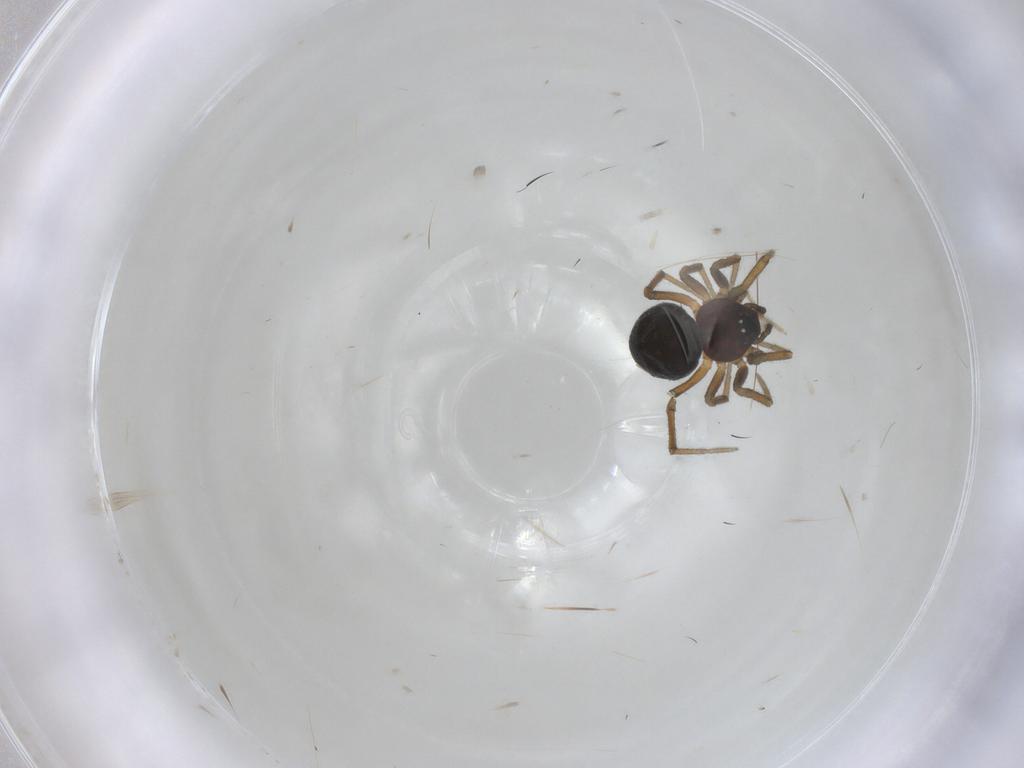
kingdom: Animalia
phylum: Arthropoda
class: Arachnida
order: Araneae
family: Linyphiidae
